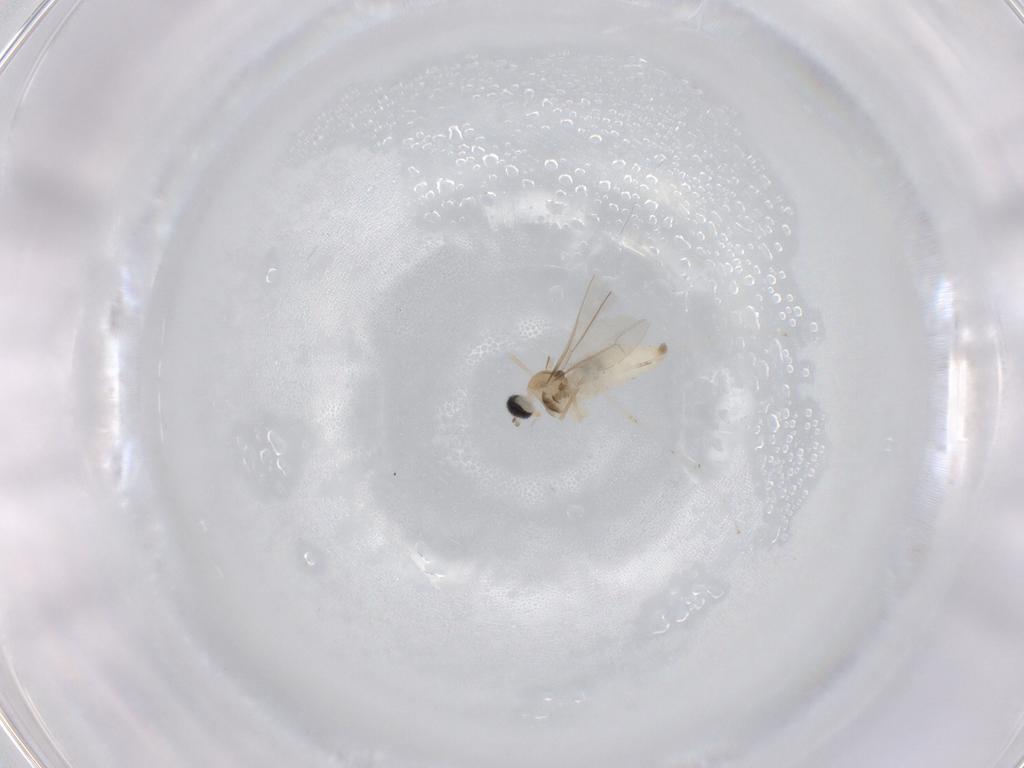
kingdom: Animalia
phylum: Arthropoda
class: Insecta
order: Diptera
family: Cecidomyiidae
